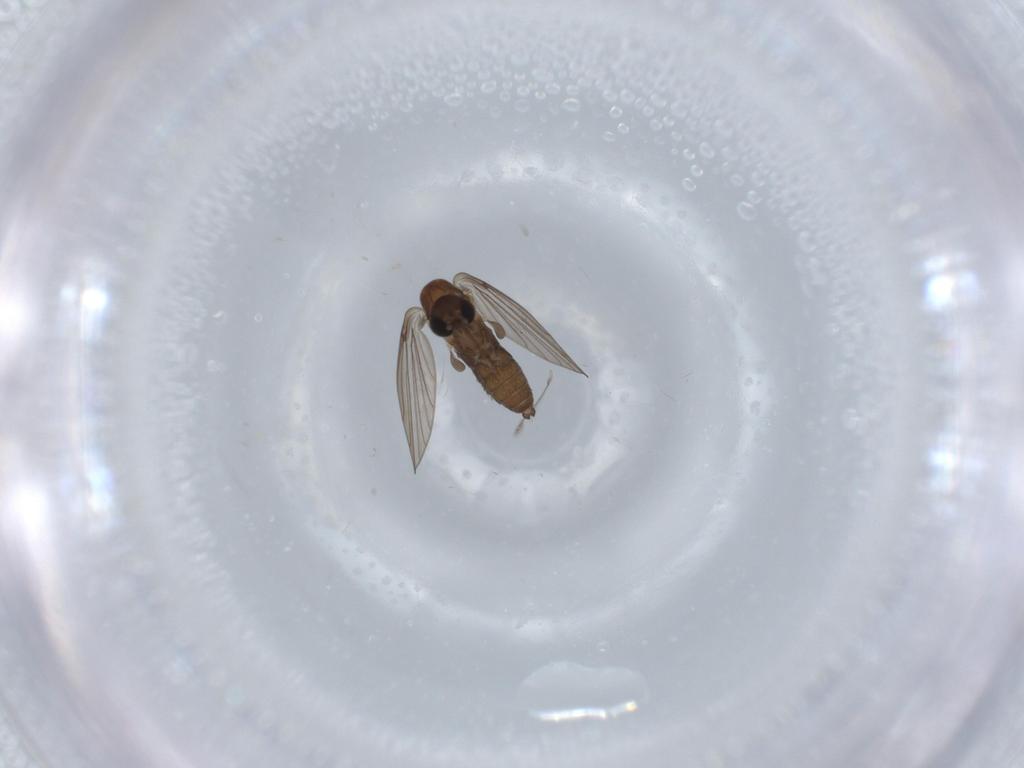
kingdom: Animalia
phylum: Arthropoda
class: Insecta
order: Diptera
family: Psychodidae
